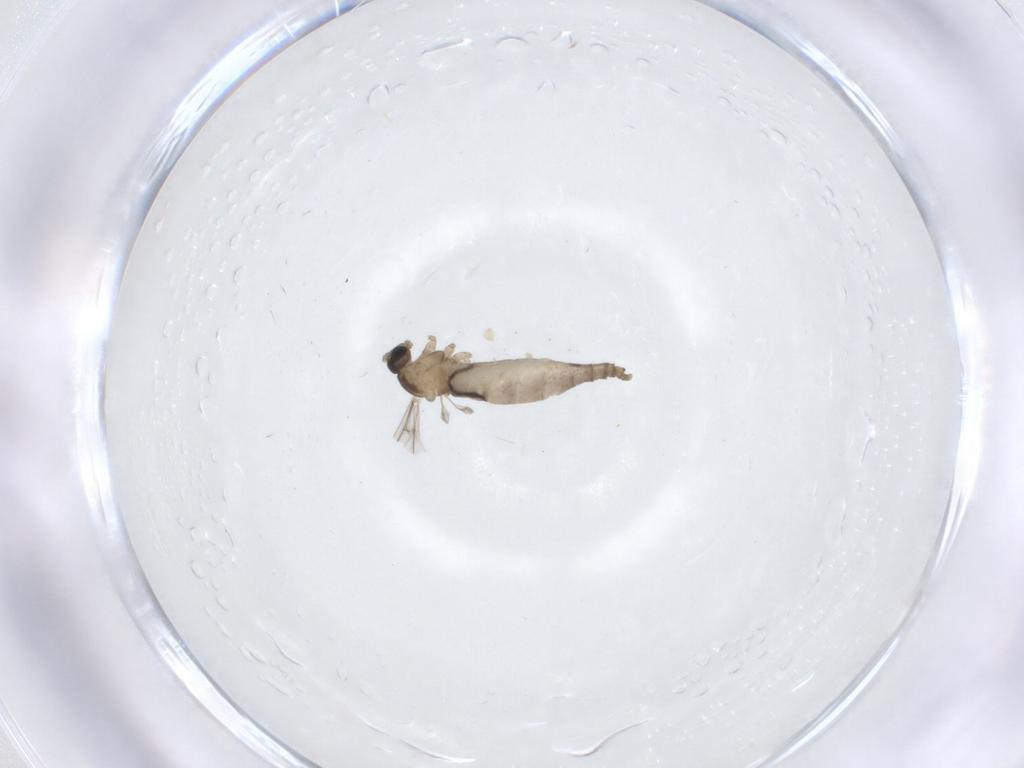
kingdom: Animalia
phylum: Arthropoda
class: Insecta
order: Diptera
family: Cecidomyiidae
